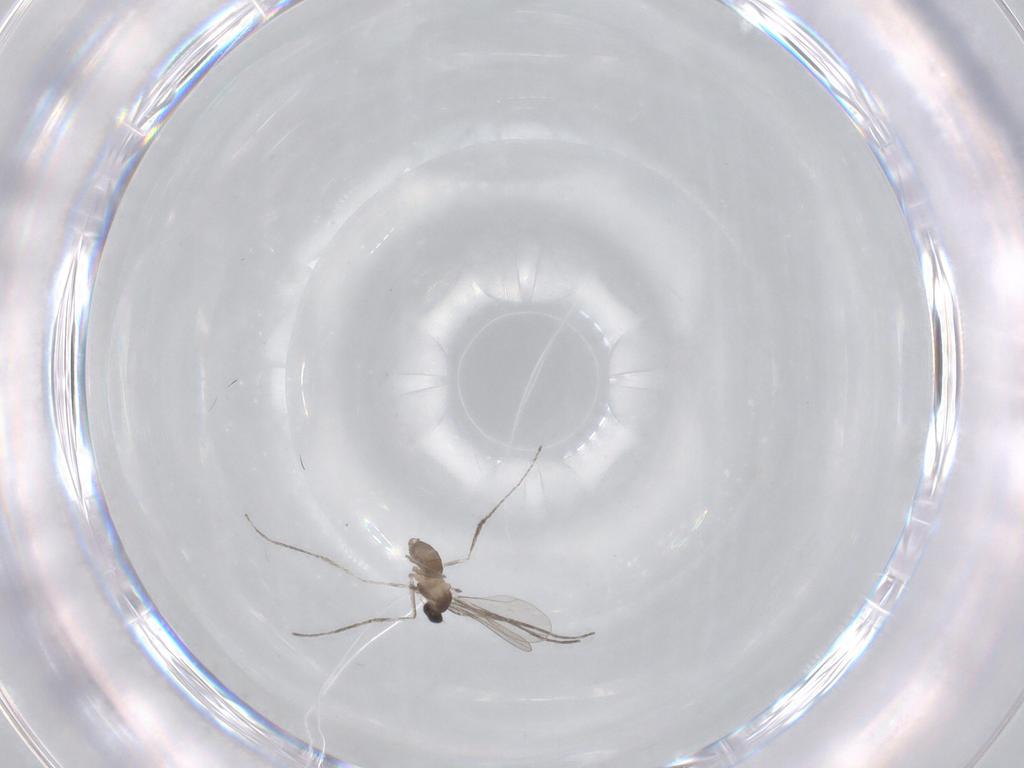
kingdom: Animalia
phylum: Arthropoda
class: Insecta
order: Diptera
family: Cecidomyiidae
